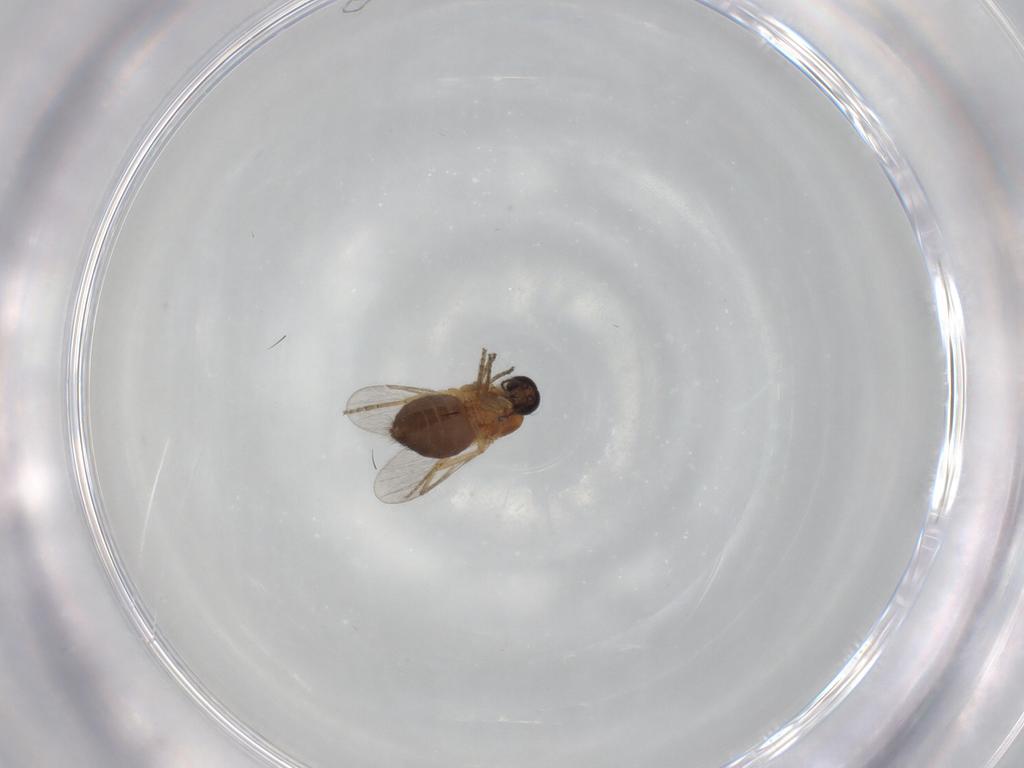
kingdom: Animalia
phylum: Arthropoda
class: Insecta
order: Diptera
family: Ceratopogonidae
